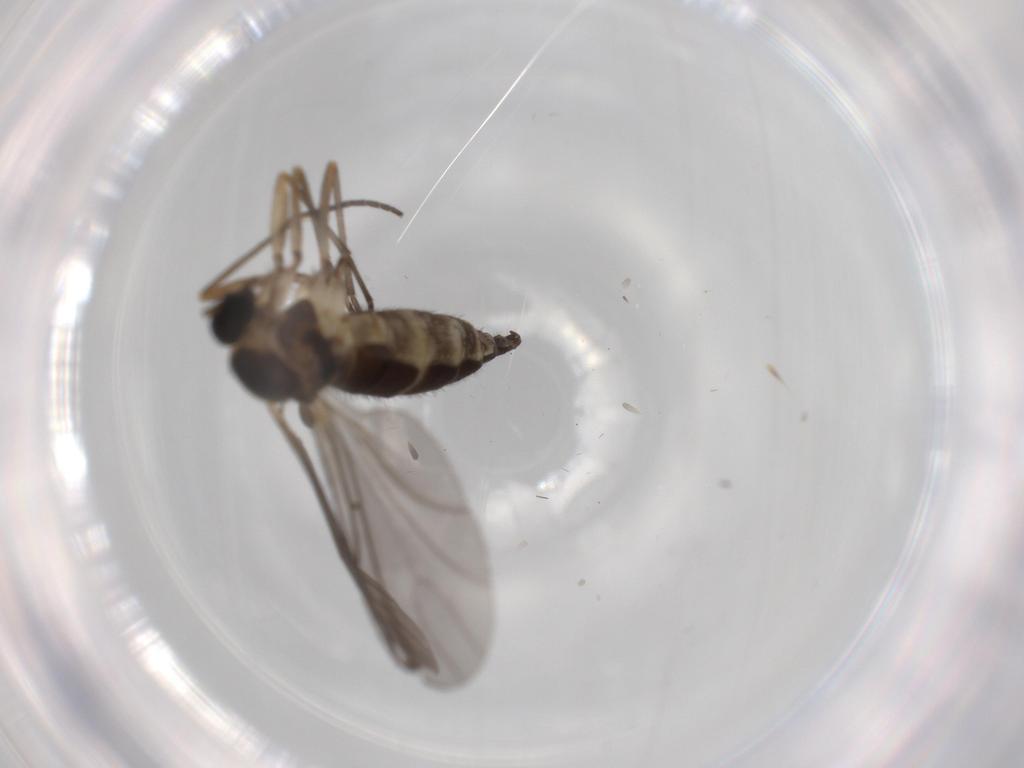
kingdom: Animalia
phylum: Arthropoda
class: Insecta
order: Diptera
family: Sciaridae
